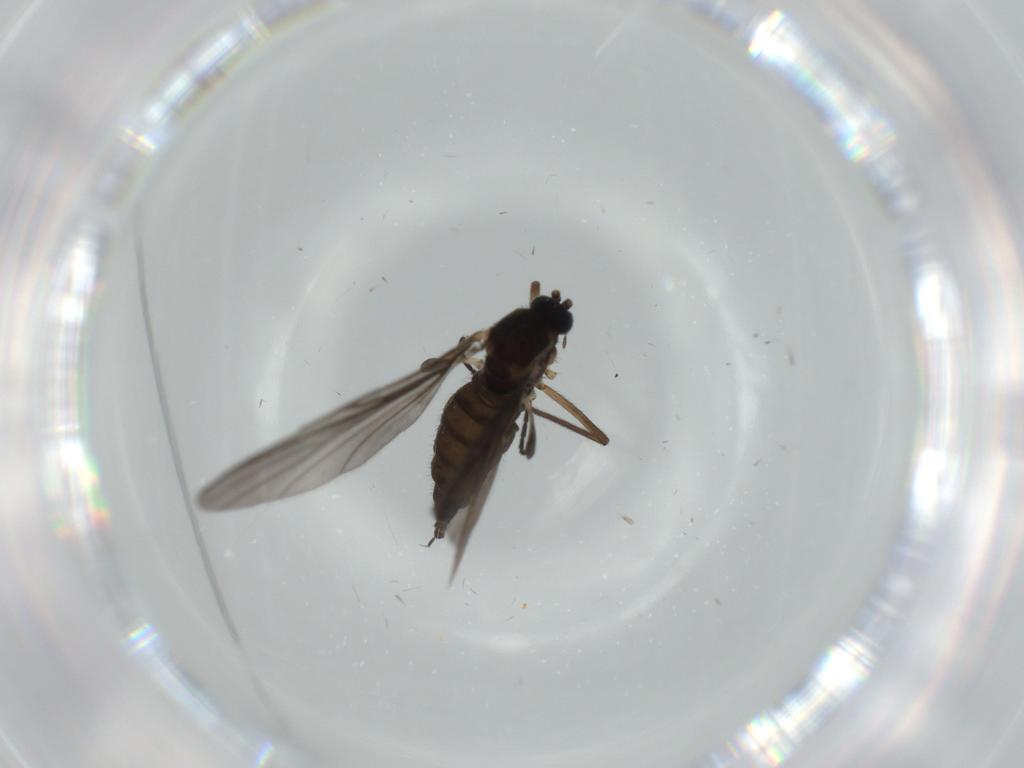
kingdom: Animalia
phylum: Arthropoda
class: Insecta
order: Diptera
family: Sciaridae
